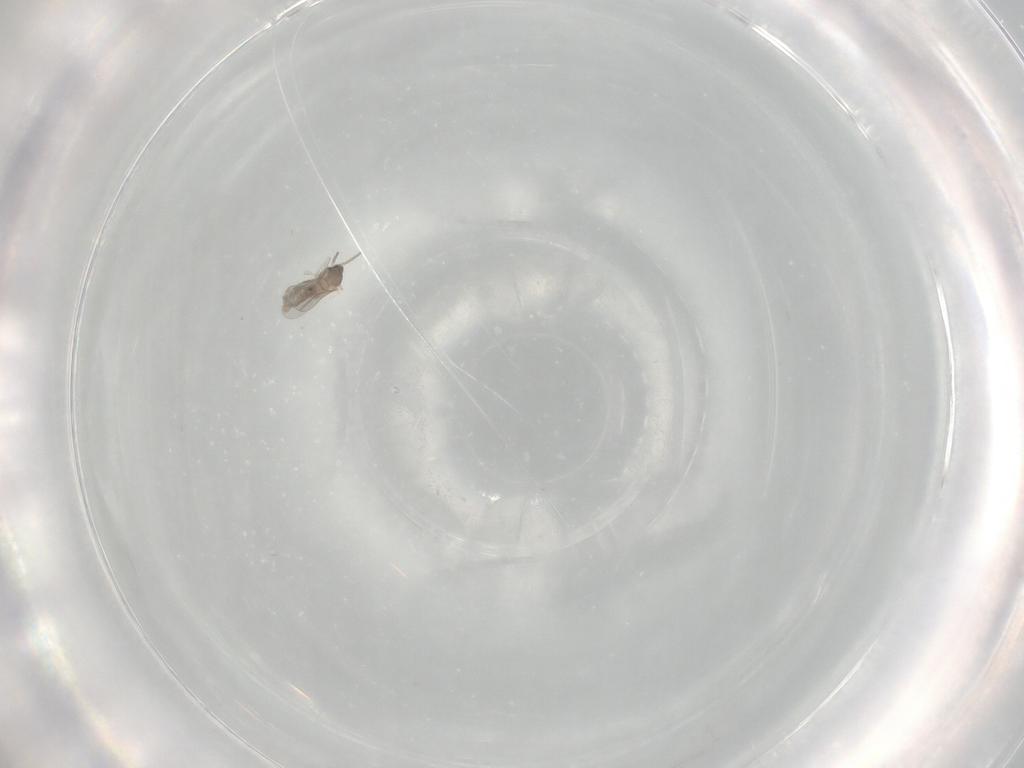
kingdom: Animalia
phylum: Arthropoda
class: Insecta
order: Diptera
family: Cecidomyiidae
